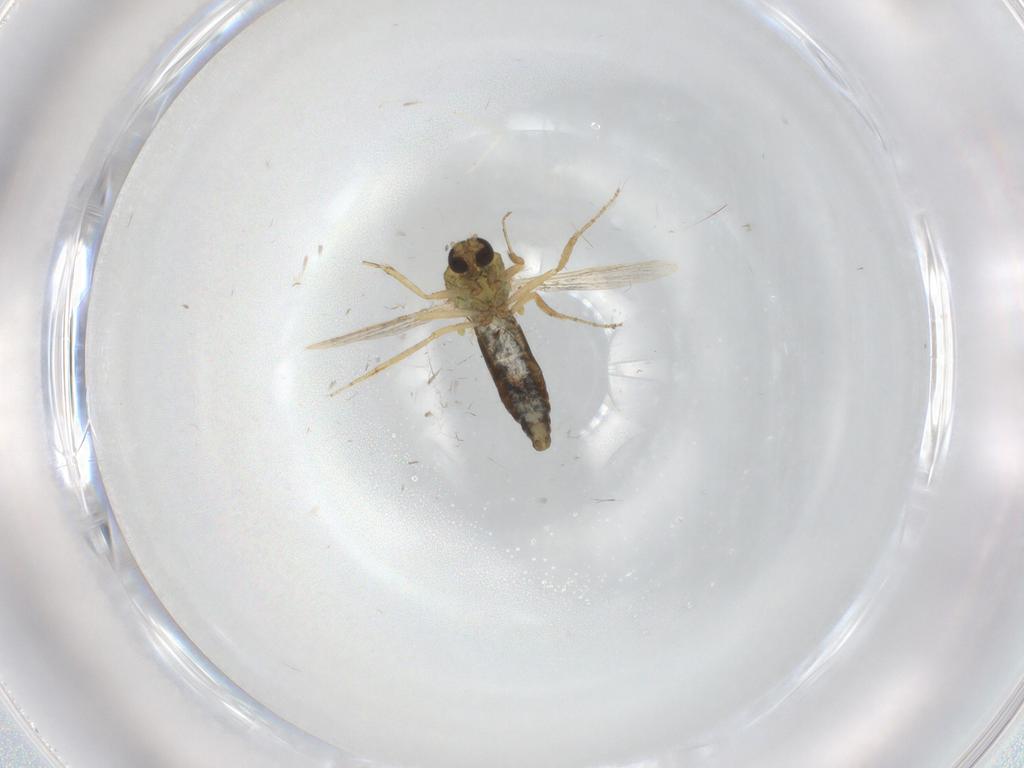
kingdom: Animalia
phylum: Arthropoda
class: Insecta
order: Diptera
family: Ceratopogonidae
